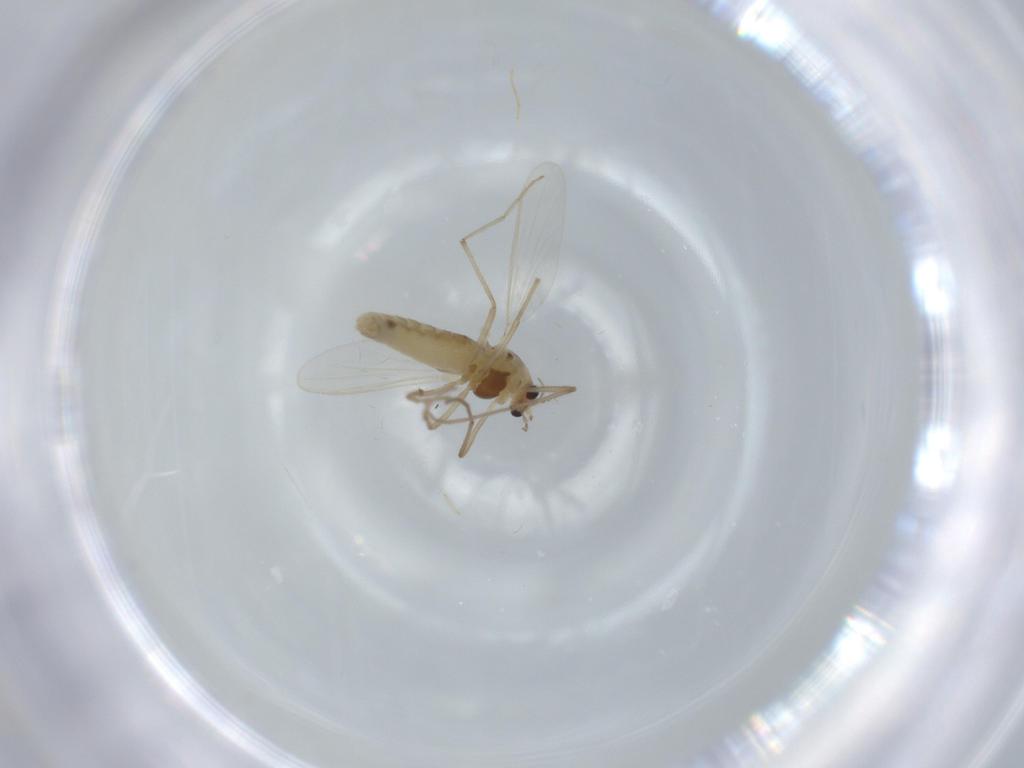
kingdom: Animalia
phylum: Arthropoda
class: Insecta
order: Diptera
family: Chironomidae
